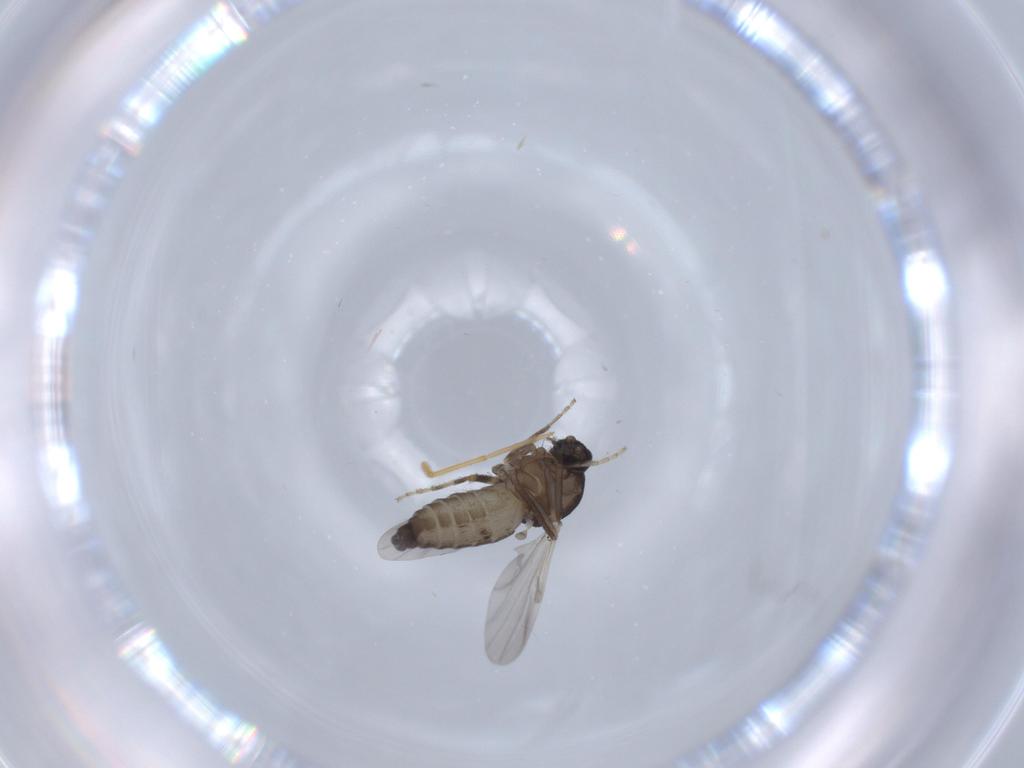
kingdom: Animalia
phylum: Arthropoda
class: Insecta
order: Diptera
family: Ceratopogonidae
